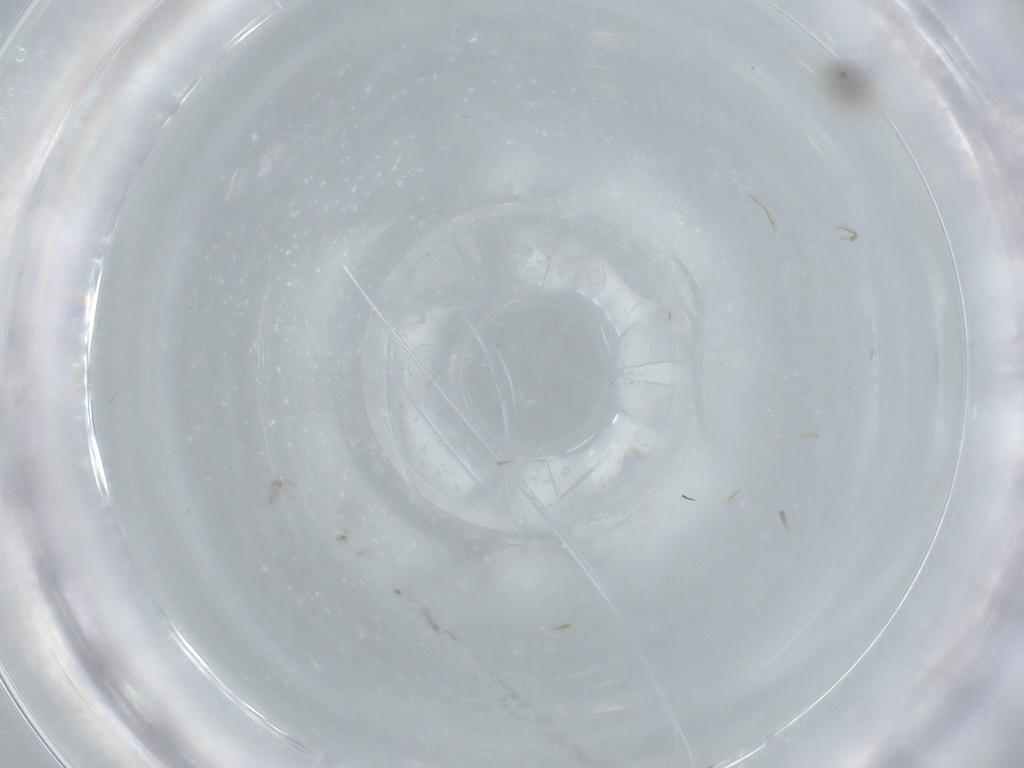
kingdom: Animalia
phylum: Arthropoda
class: Insecta
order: Diptera
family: Cecidomyiidae
